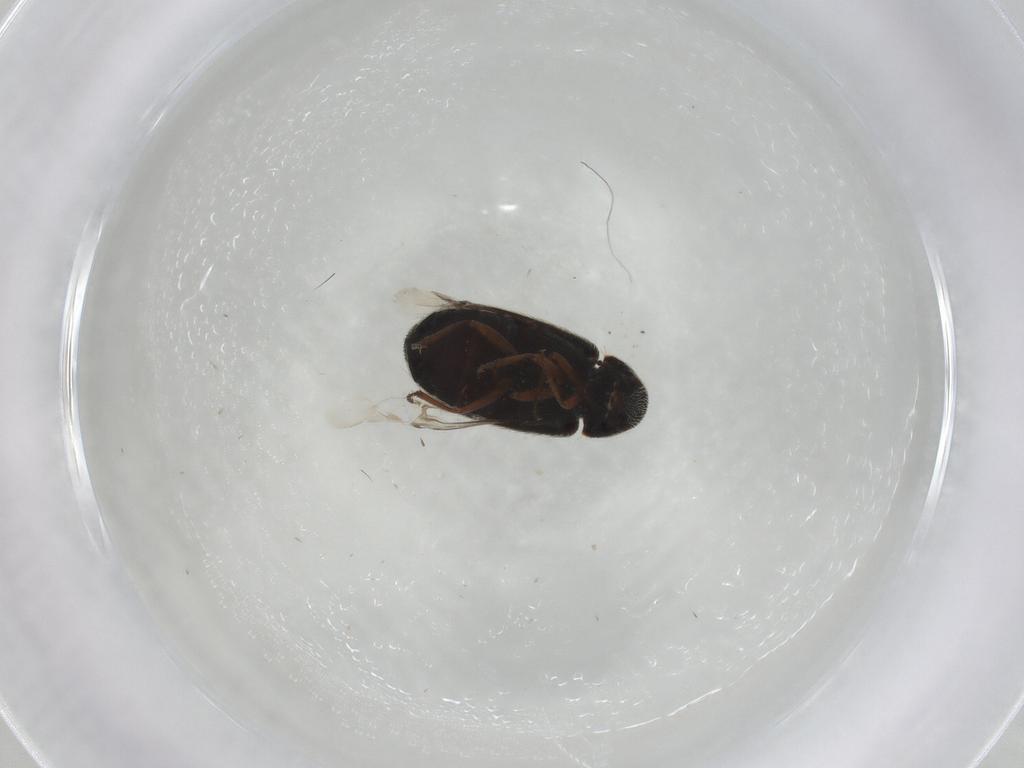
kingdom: Animalia
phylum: Arthropoda
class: Insecta
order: Coleoptera
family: Rhadalidae
